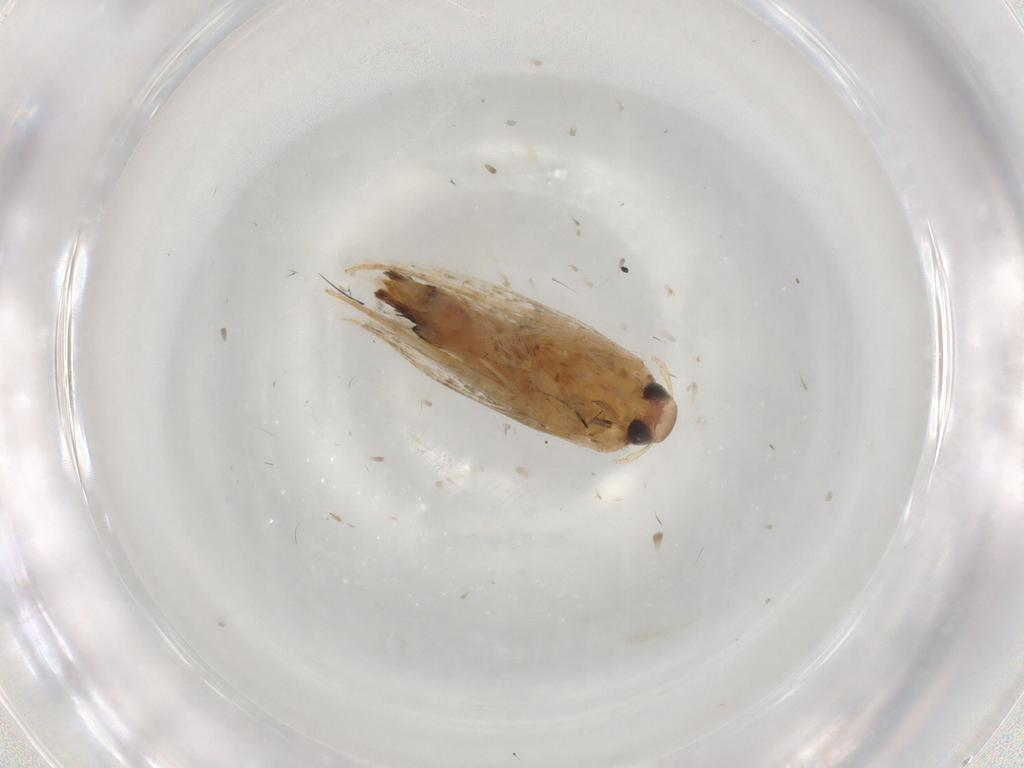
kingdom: Animalia
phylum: Arthropoda
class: Insecta
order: Lepidoptera
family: Cosmopterigidae
